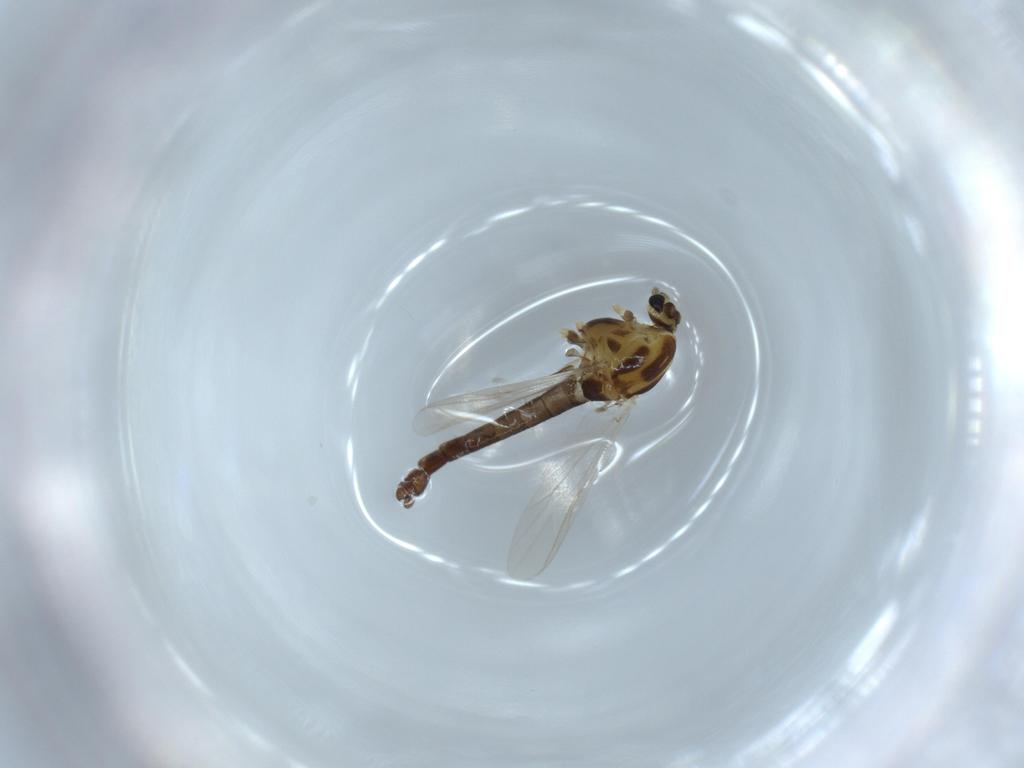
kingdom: Animalia
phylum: Arthropoda
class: Insecta
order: Diptera
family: Chironomidae
